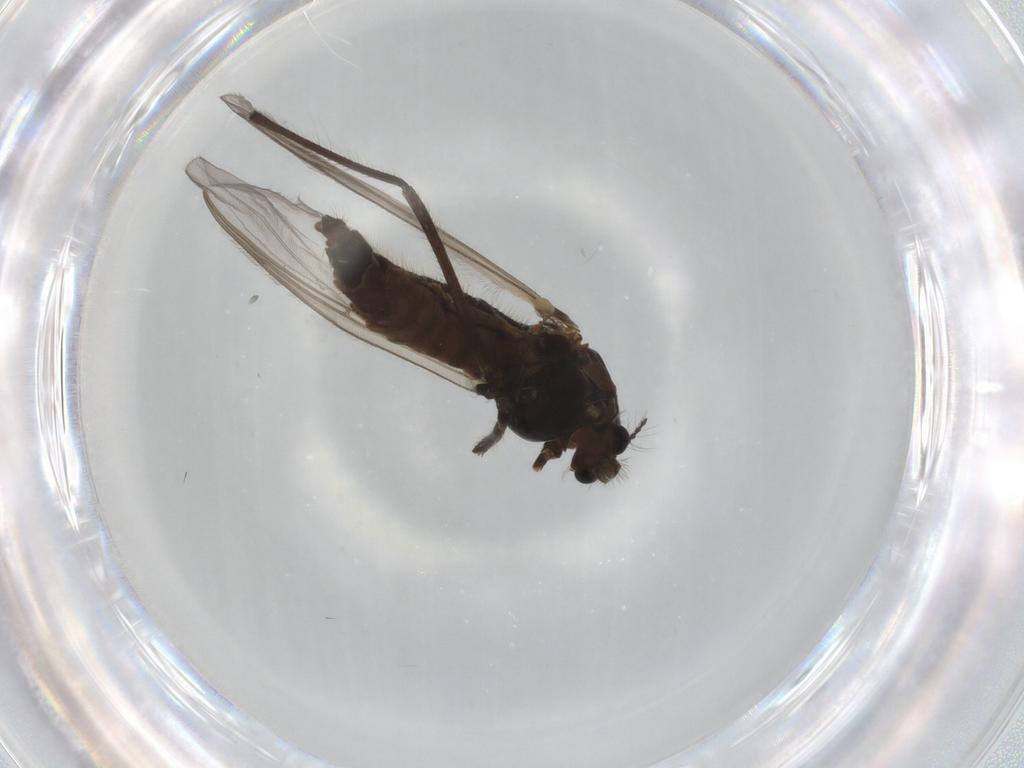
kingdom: Animalia
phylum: Arthropoda
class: Insecta
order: Diptera
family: Chironomidae
